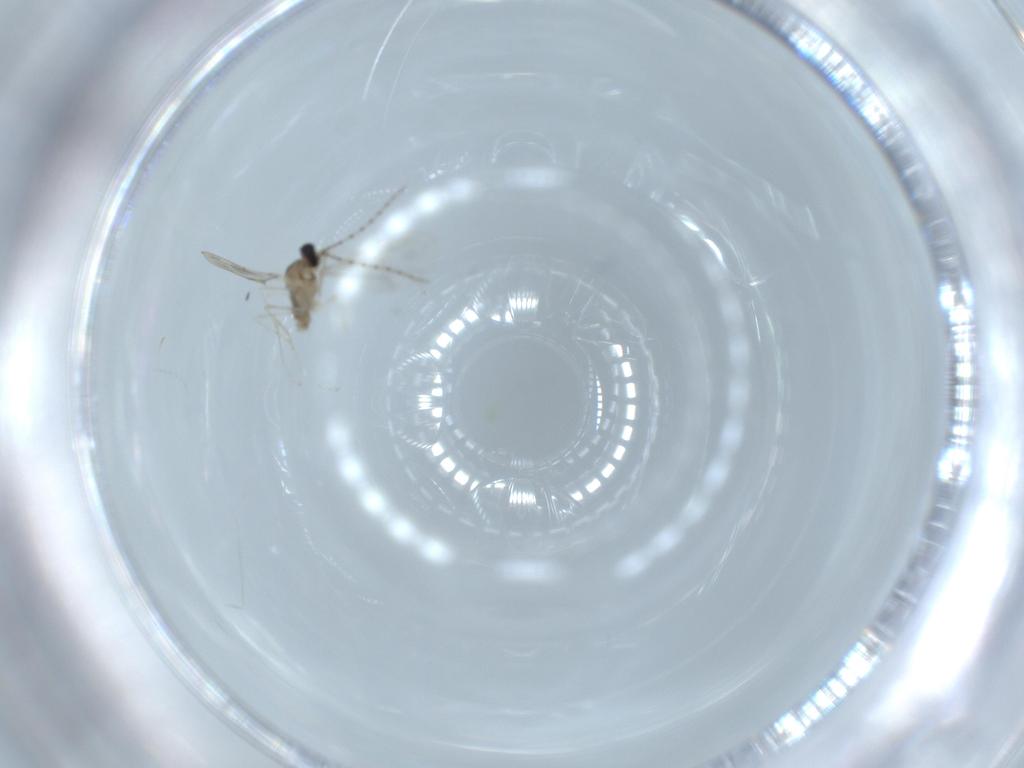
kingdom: Animalia
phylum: Arthropoda
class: Insecta
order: Diptera
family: Cecidomyiidae
